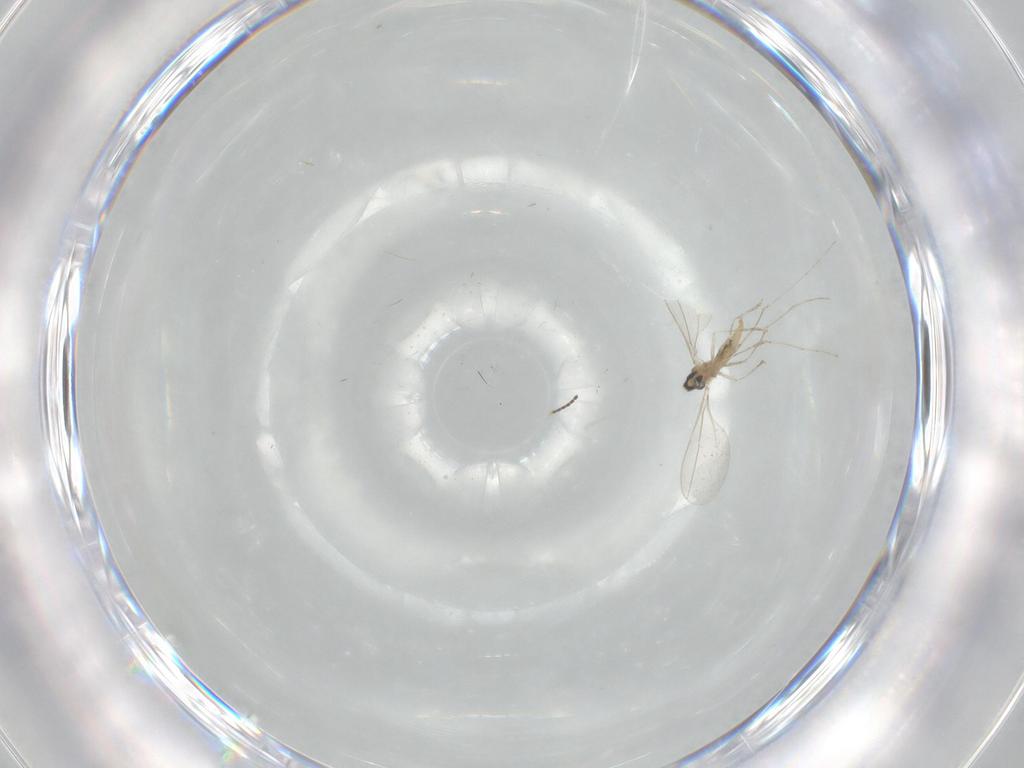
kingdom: Animalia
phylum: Arthropoda
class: Insecta
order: Diptera
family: Cecidomyiidae
